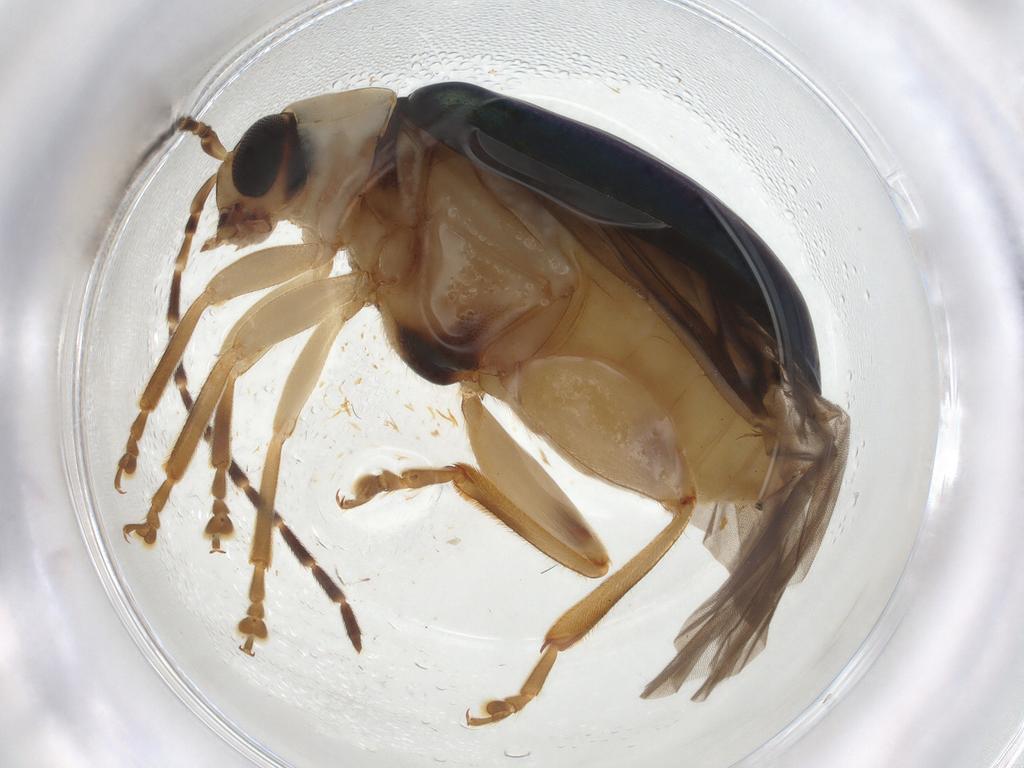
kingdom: Animalia
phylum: Arthropoda
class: Insecta
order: Coleoptera
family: Chrysomelidae
